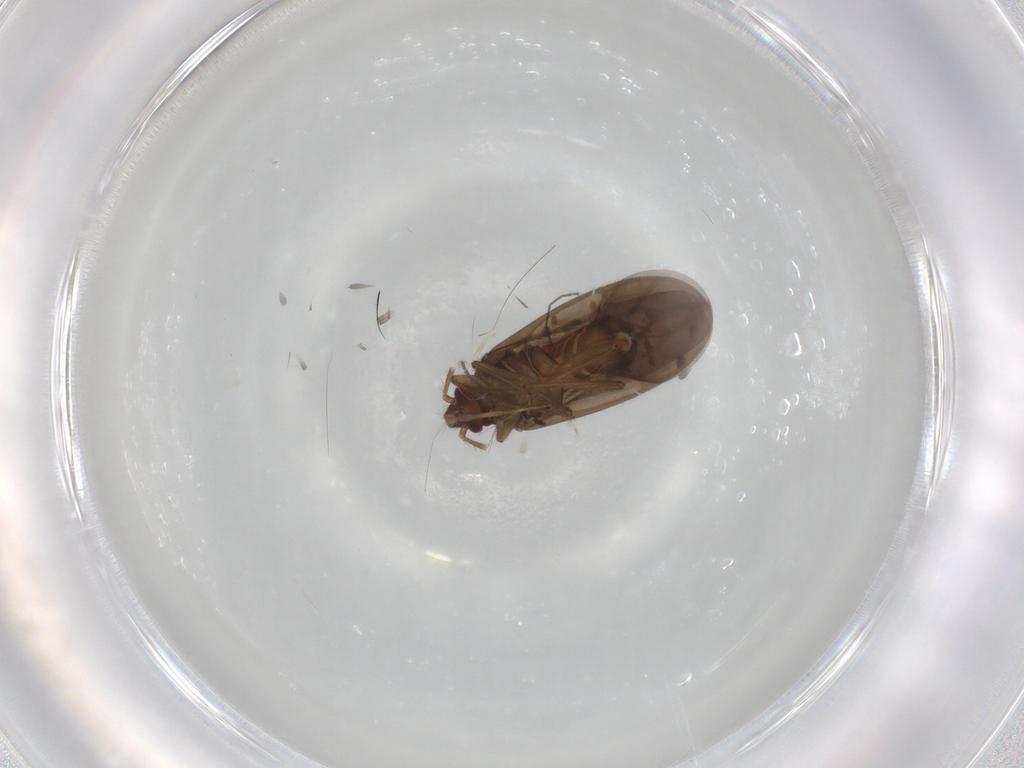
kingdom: Animalia
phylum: Arthropoda
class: Insecta
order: Hemiptera
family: Ceratocombidae
